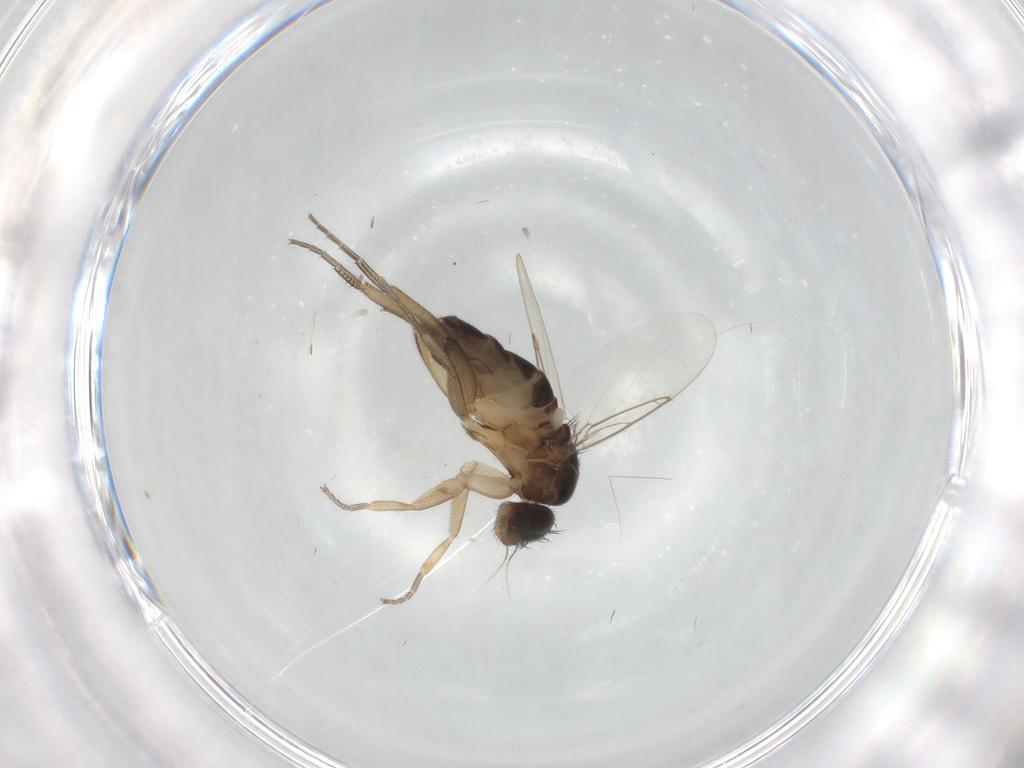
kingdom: Animalia
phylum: Arthropoda
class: Insecta
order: Diptera
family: Phoridae
